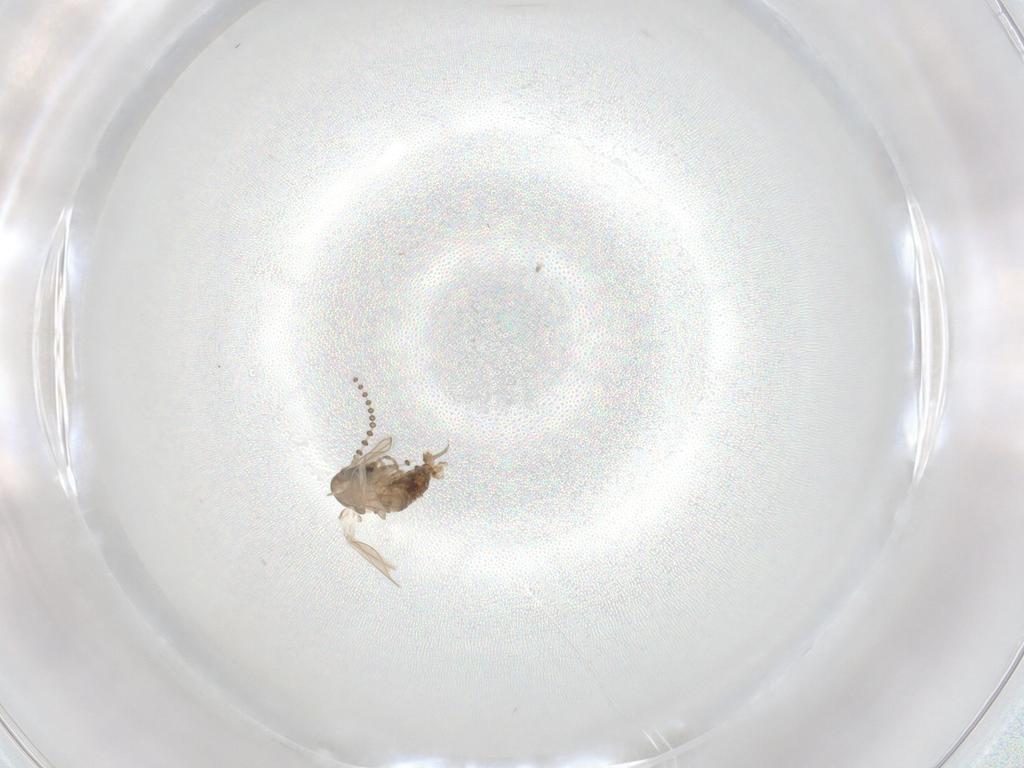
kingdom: Animalia
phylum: Arthropoda
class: Insecta
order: Diptera
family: Psychodidae
